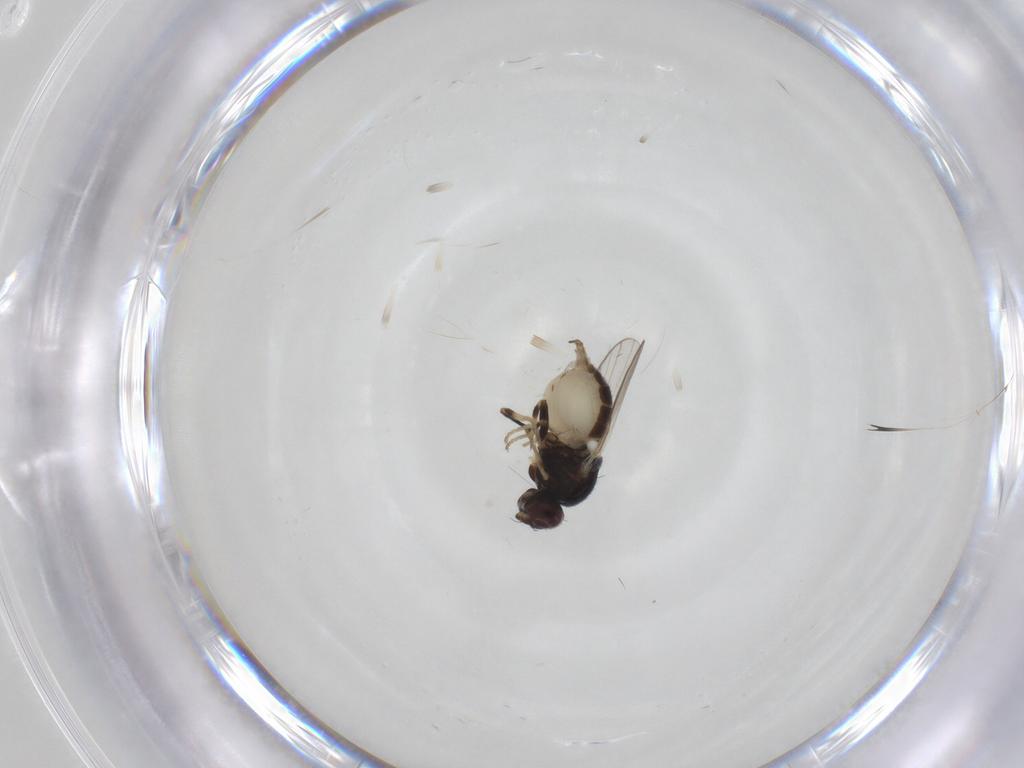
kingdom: Animalia
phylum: Arthropoda
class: Insecta
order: Diptera
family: Chloropidae
